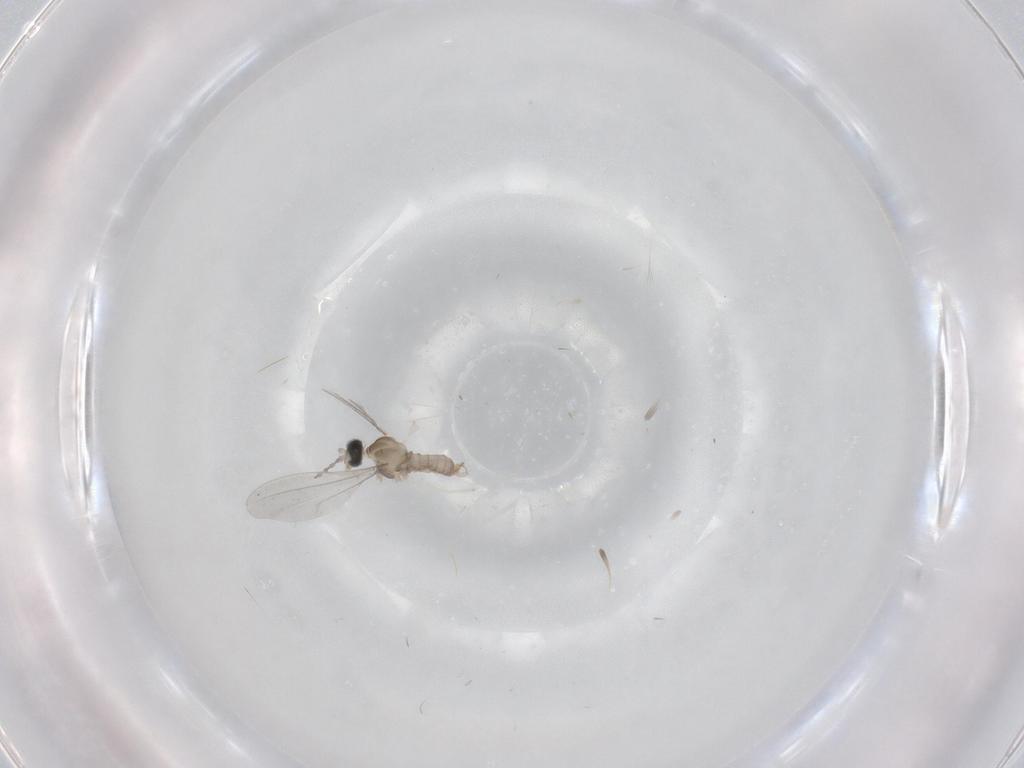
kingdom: Animalia
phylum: Arthropoda
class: Insecta
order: Diptera
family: Cecidomyiidae
